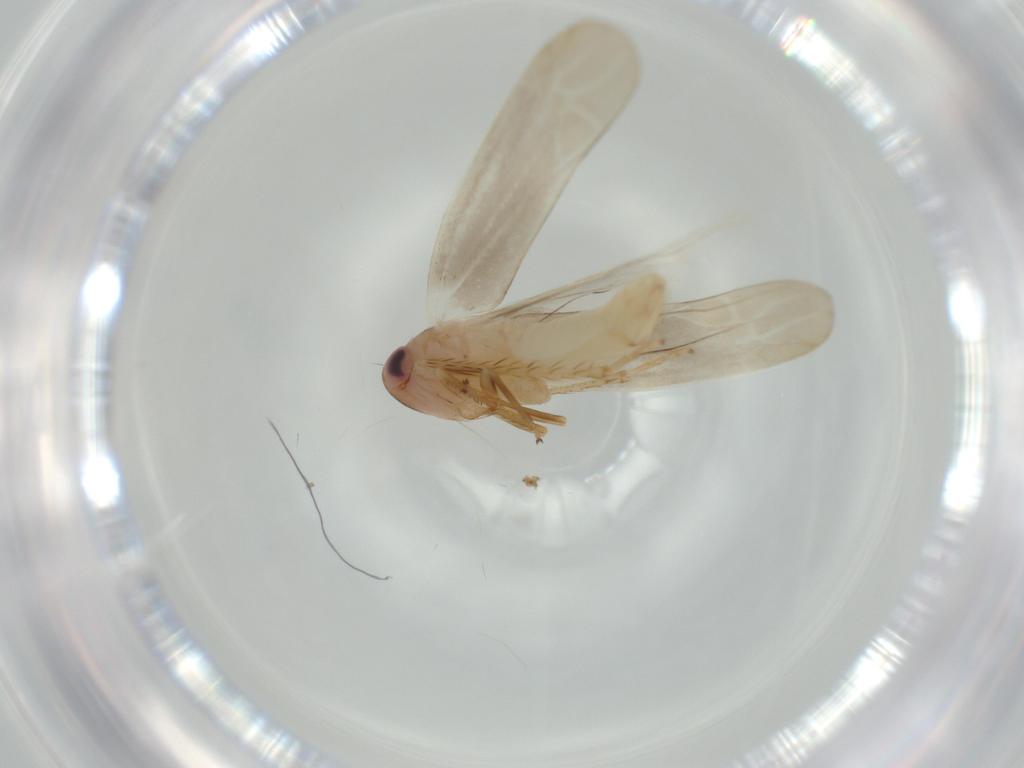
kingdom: Animalia
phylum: Arthropoda
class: Insecta
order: Hemiptera
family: Cicadellidae
